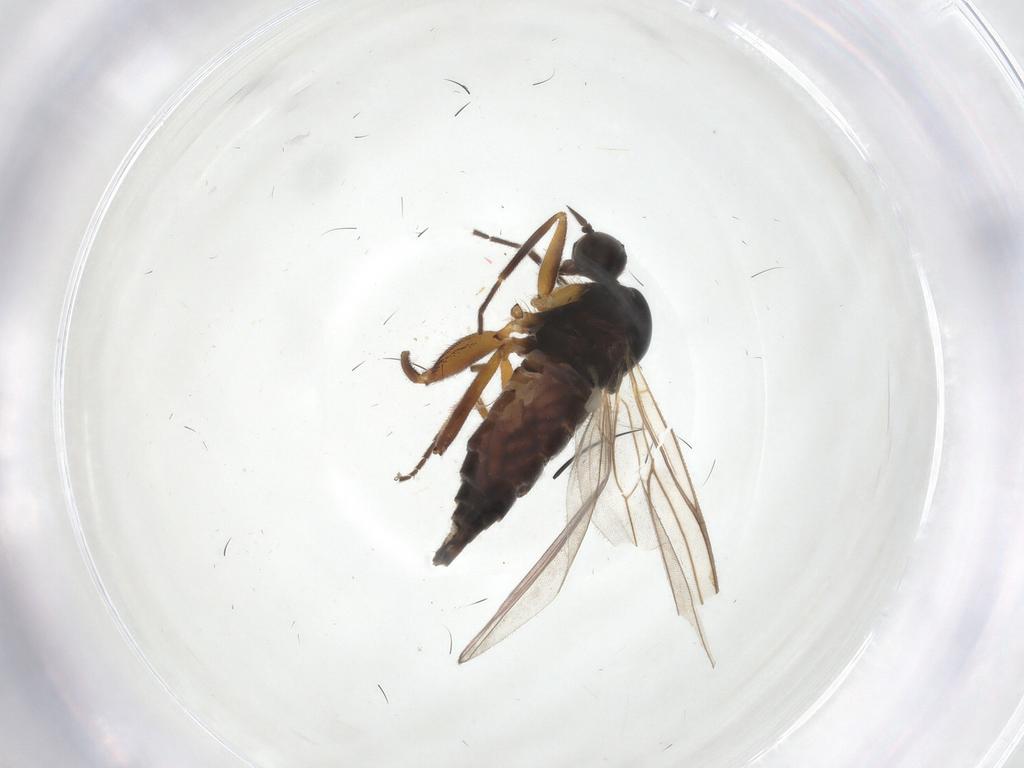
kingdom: Animalia
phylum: Arthropoda
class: Insecta
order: Diptera
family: Hybotidae
